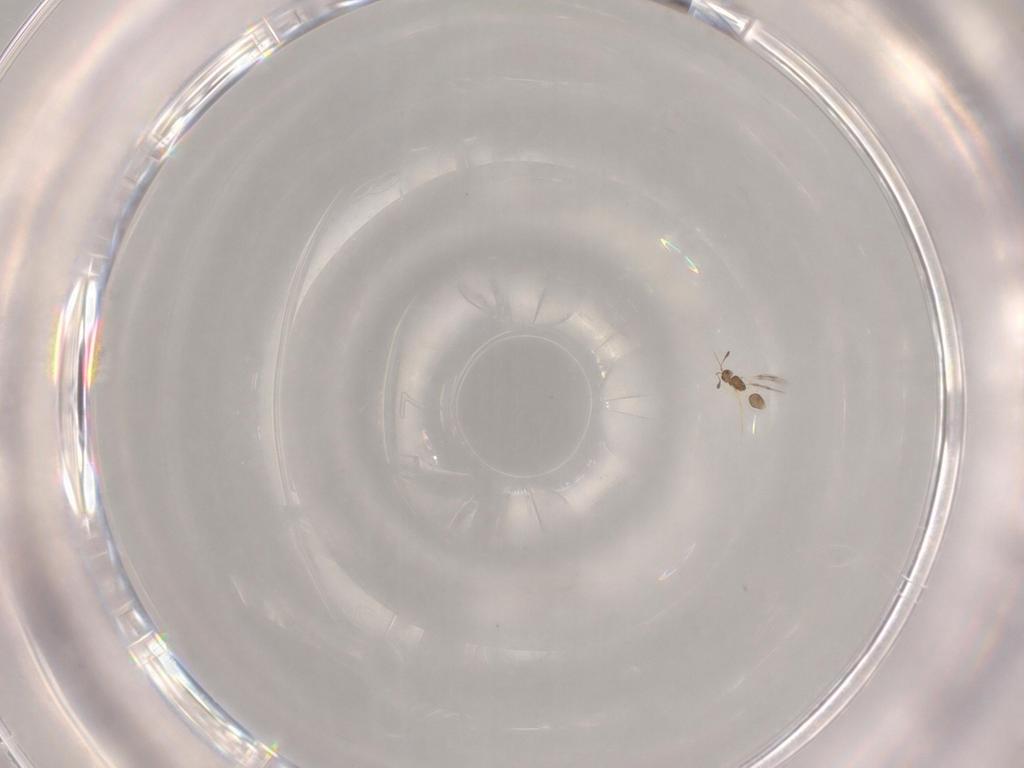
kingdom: Animalia
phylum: Arthropoda
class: Insecta
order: Hymenoptera
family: Mymarommatidae
